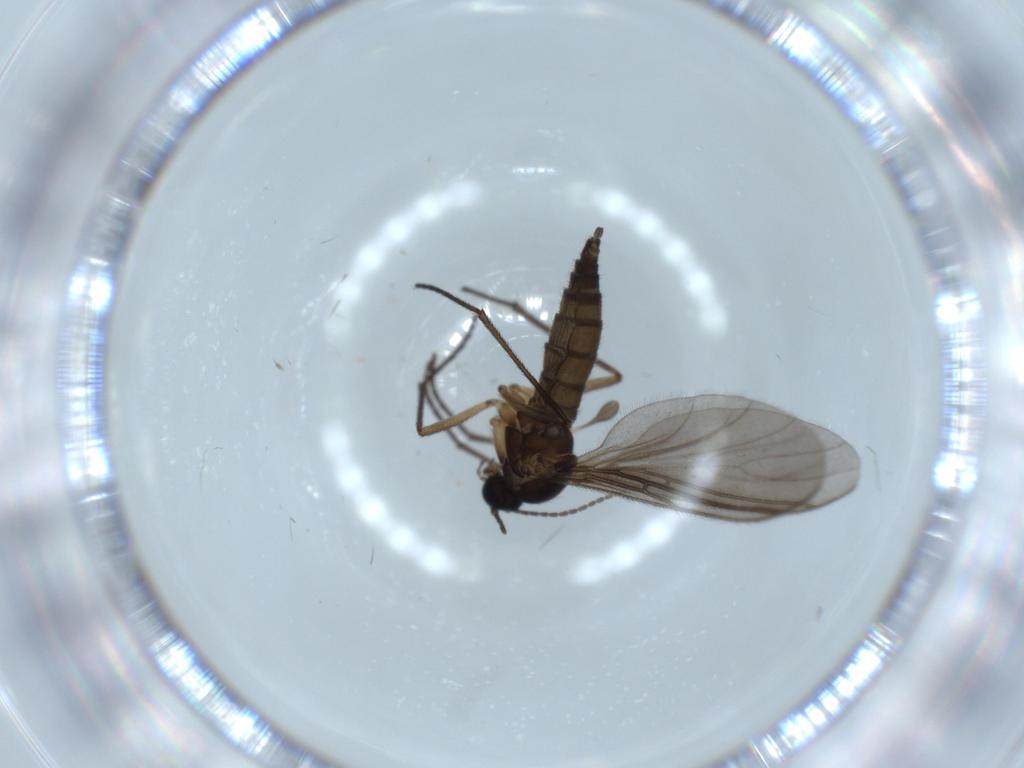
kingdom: Animalia
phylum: Arthropoda
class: Insecta
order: Diptera
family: Sciaridae
